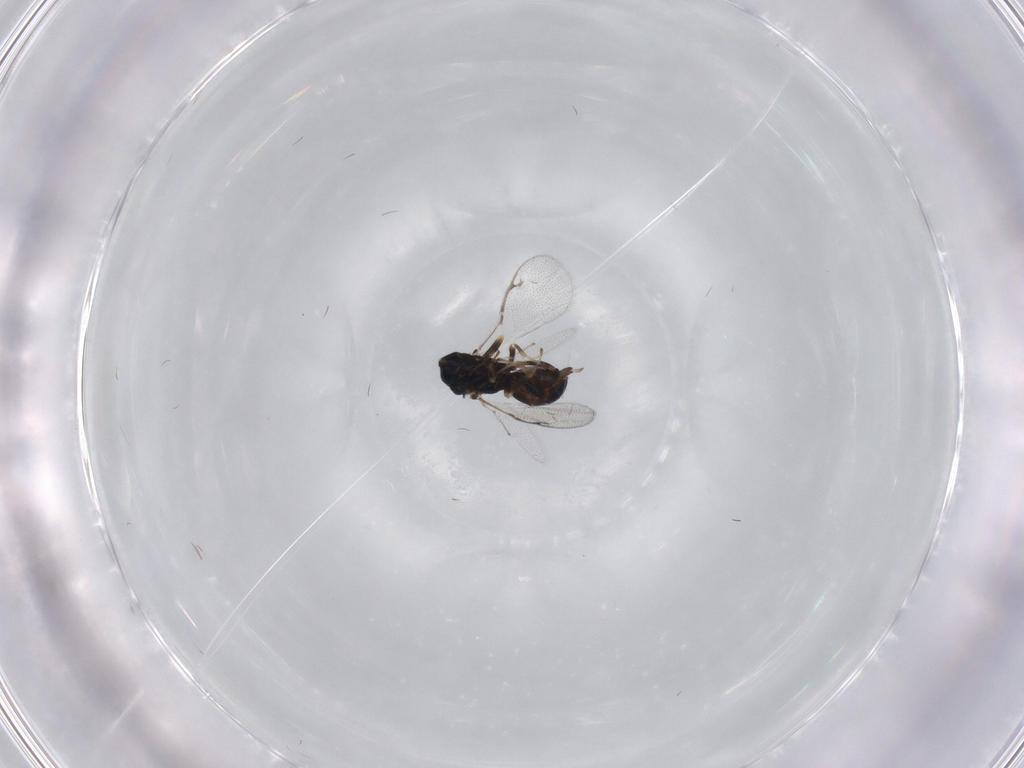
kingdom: Animalia
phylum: Arthropoda
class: Insecta
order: Hymenoptera
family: Pteromalidae
